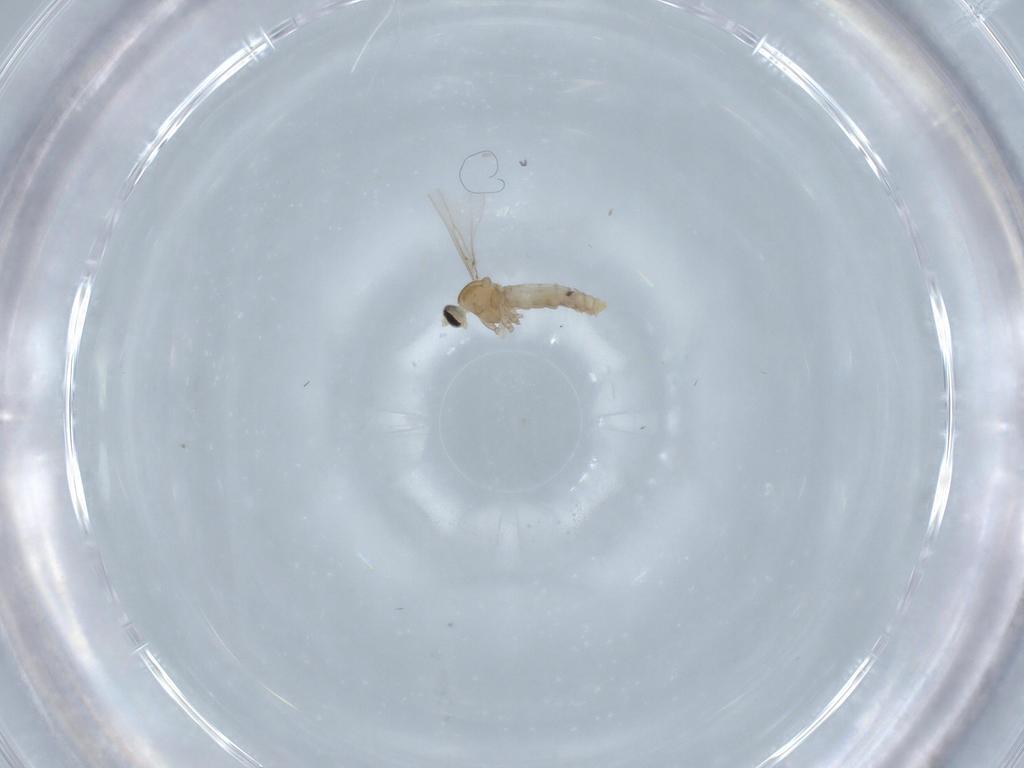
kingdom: Animalia
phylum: Arthropoda
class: Insecta
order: Diptera
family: Cecidomyiidae
